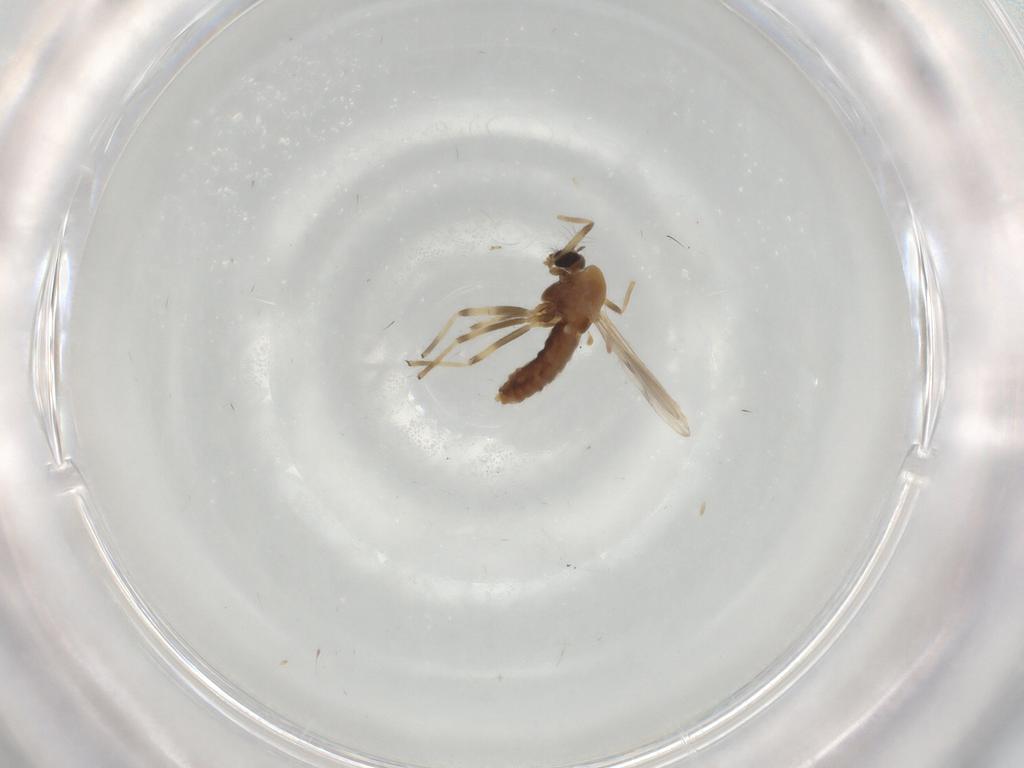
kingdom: Animalia
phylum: Arthropoda
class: Insecta
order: Diptera
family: Chironomidae
